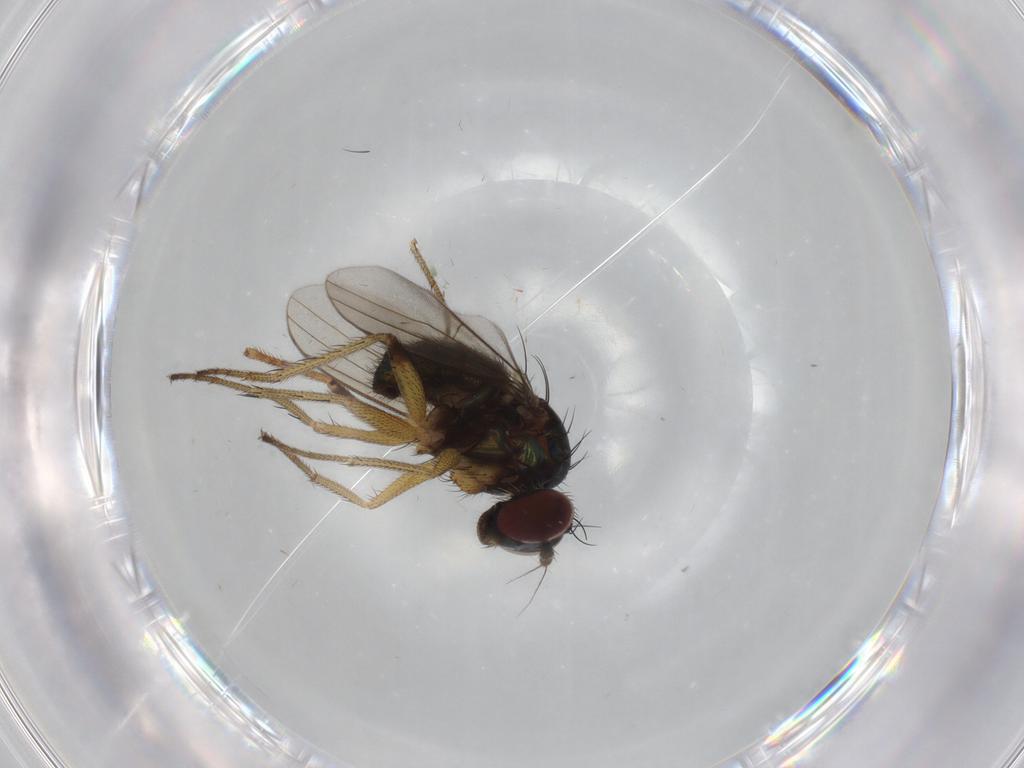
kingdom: Animalia
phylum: Arthropoda
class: Insecta
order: Diptera
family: Dolichopodidae
